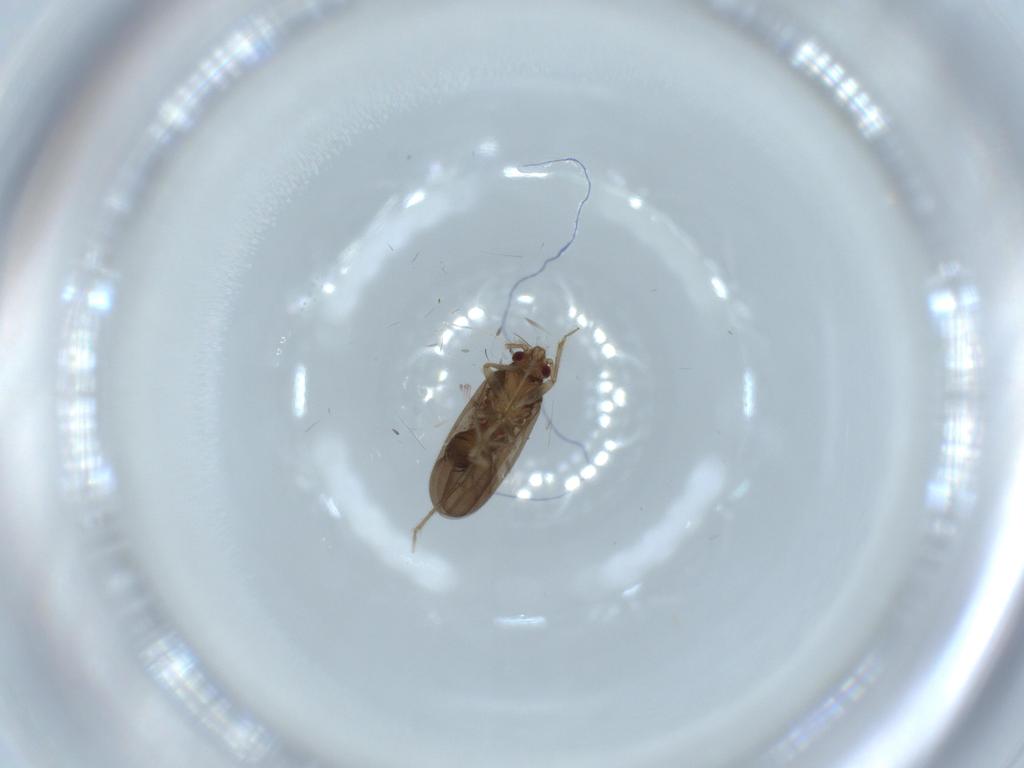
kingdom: Animalia
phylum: Arthropoda
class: Insecta
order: Hemiptera
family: Ceratocombidae
